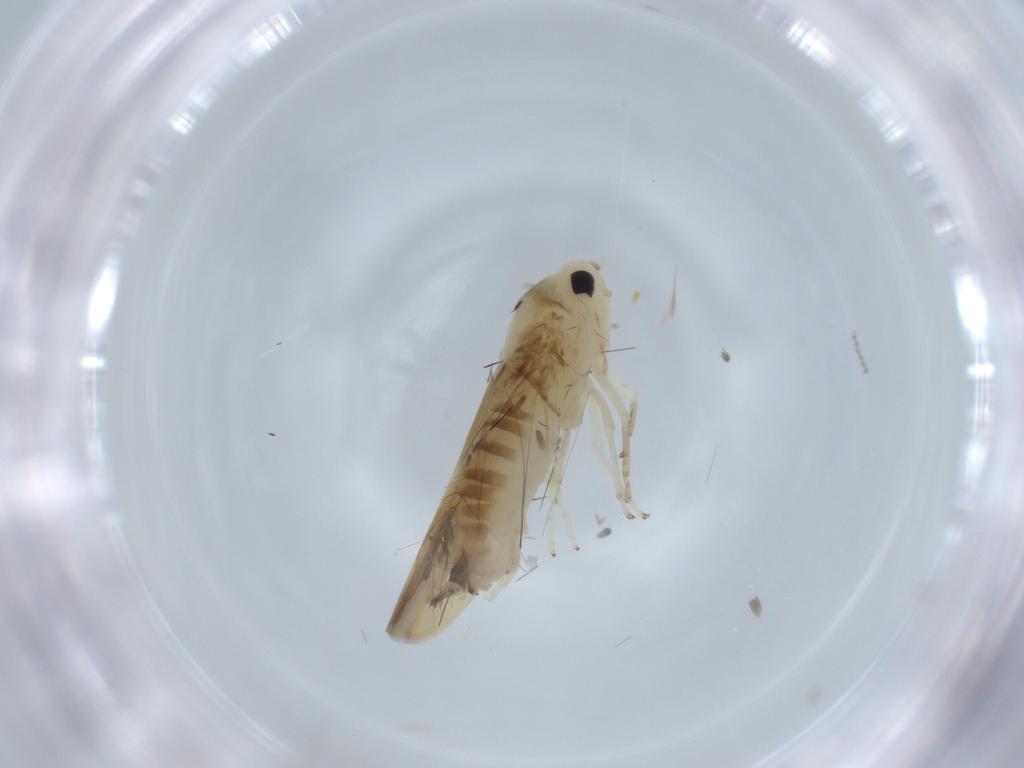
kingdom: Animalia
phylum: Arthropoda
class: Insecta
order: Hemiptera
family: Cicadellidae
